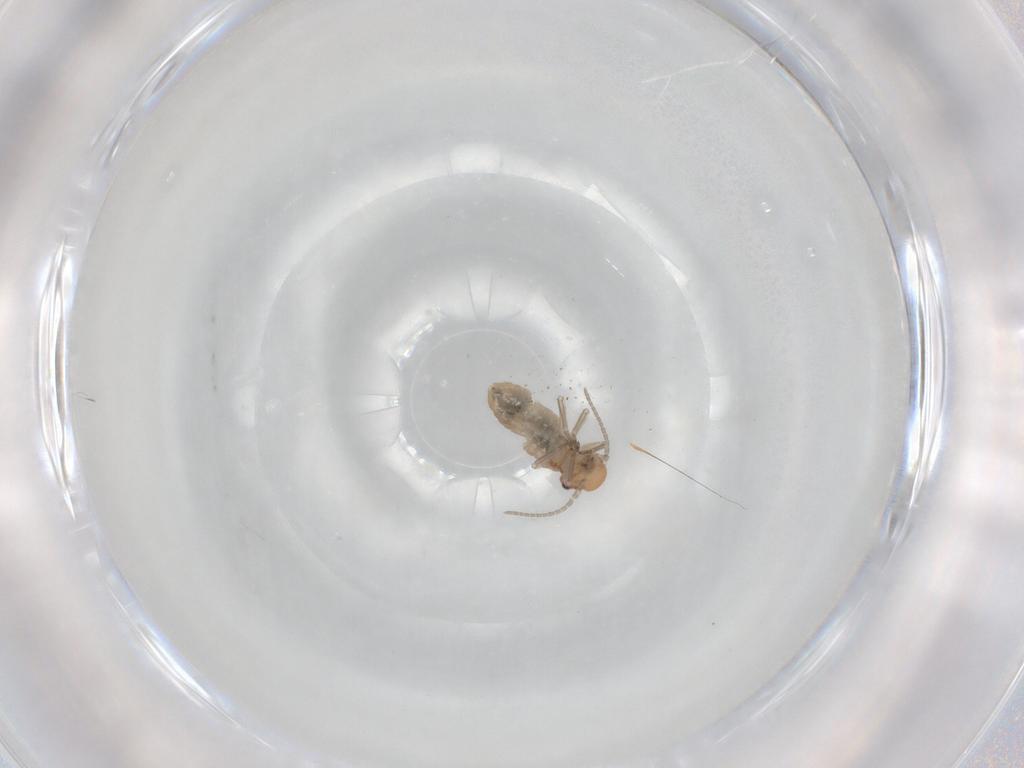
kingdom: Animalia
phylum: Arthropoda
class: Insecta
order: Psocodea
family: Caeciliusidae
